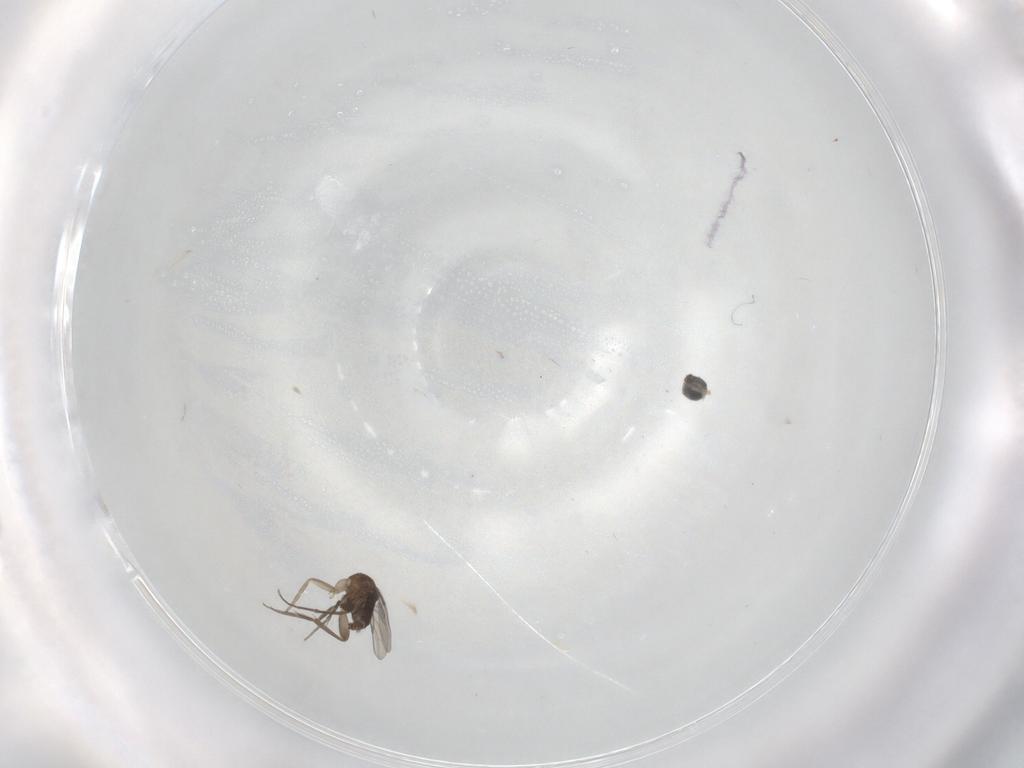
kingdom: Animalia
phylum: Arthropoda
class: Insecta
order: Diptera
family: Phoridae
